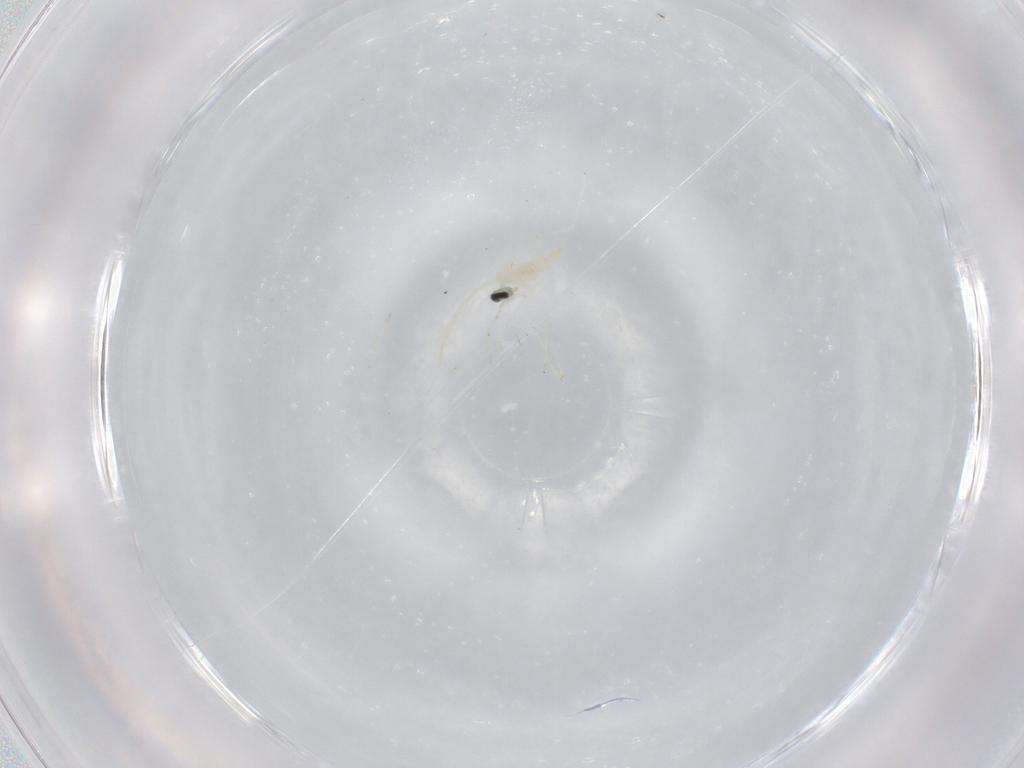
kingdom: Animalia
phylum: Arthropoda
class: Insecta
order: Diptera
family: Cecidomyiidae
